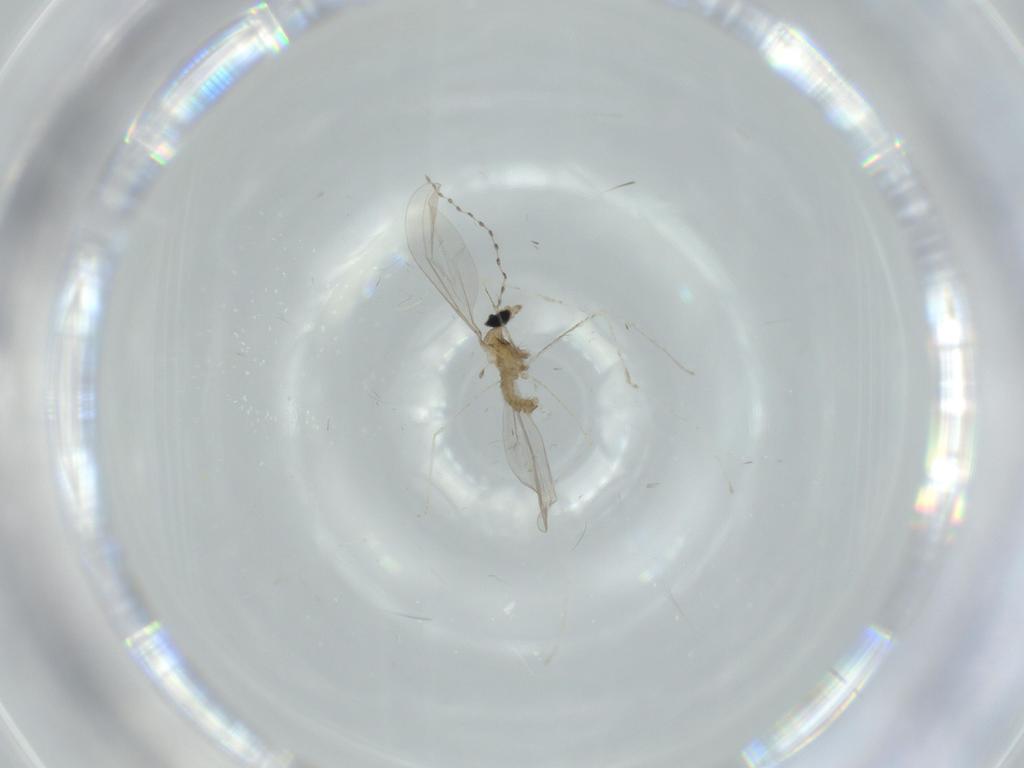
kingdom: Animalia
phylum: Arthropoda
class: Insecta
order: Diptera
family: Cecidomyiidae
